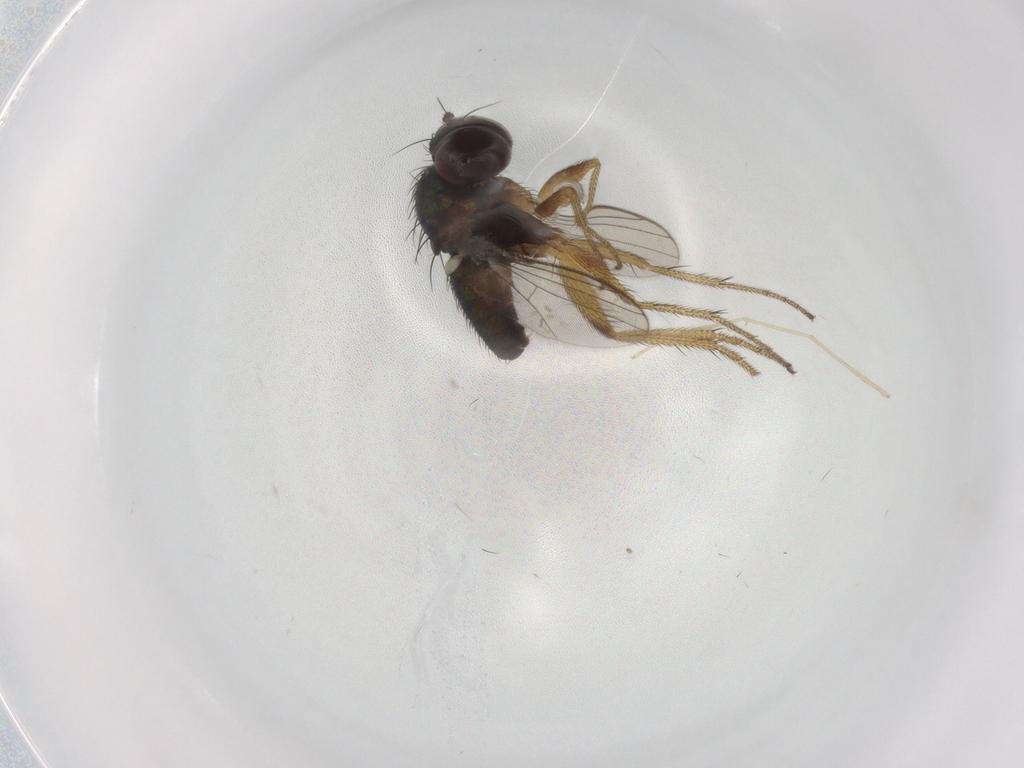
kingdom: Animalia
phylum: Arthropoda
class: Insecta
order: Diptera
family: Chironomidae
